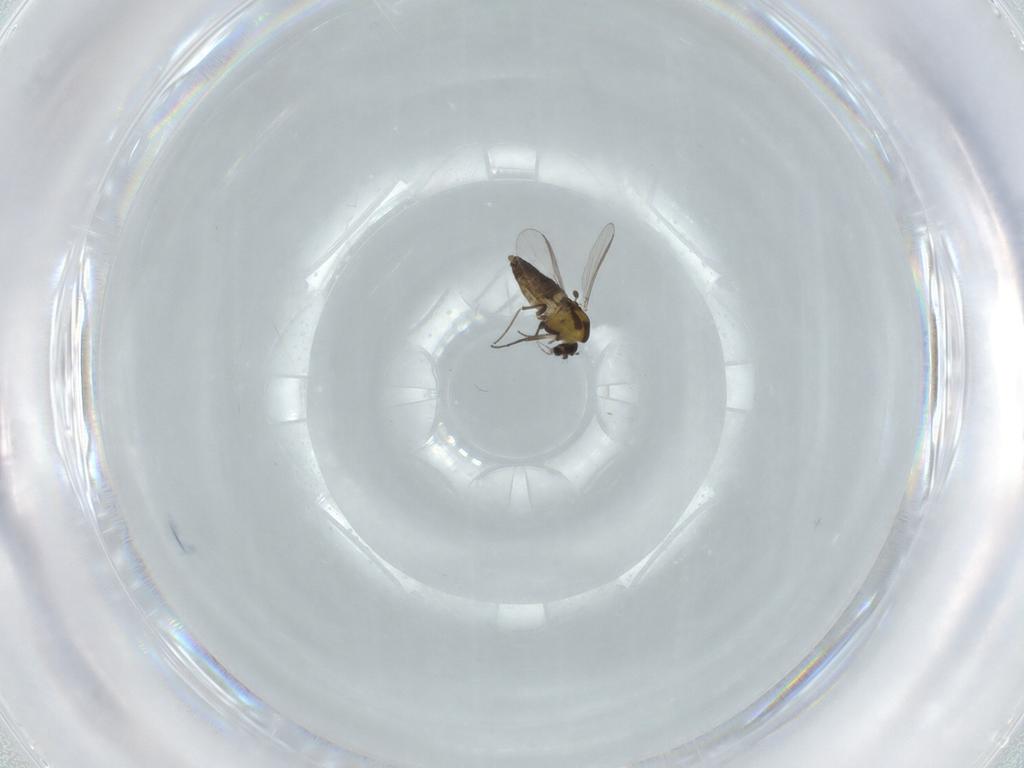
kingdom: Animalia
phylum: Arthropoda
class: Insecta
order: Diptera
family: Chironomidae
